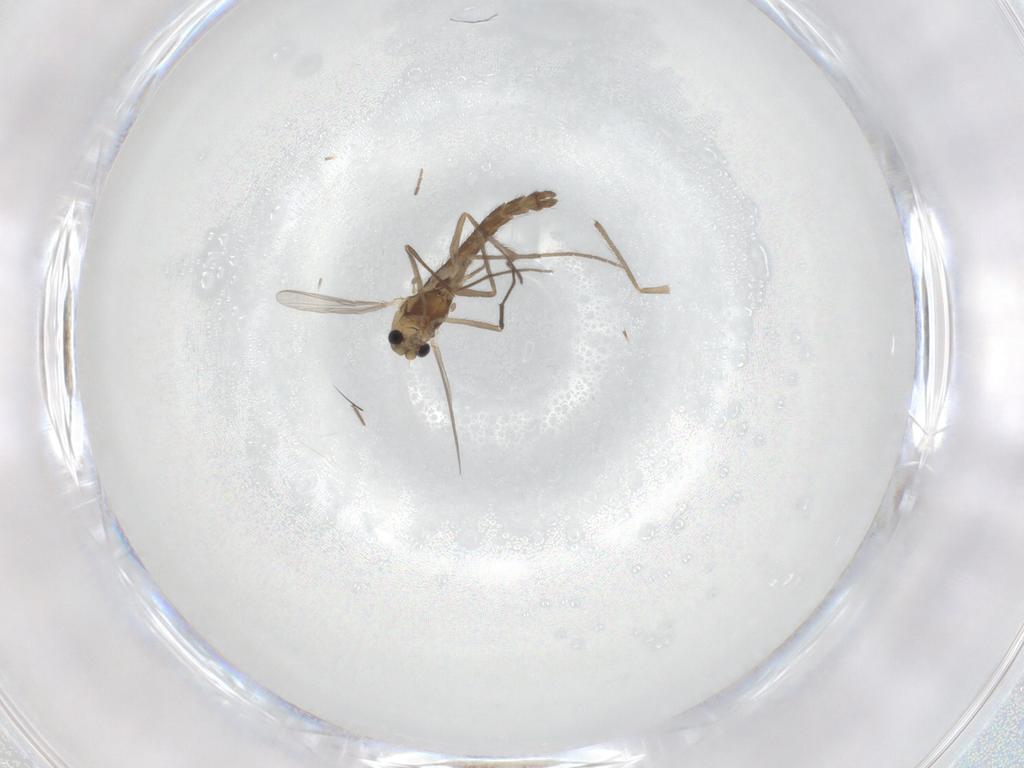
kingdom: Animalia
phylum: Arthropoda
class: Insecta
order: Diptera
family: Chironomidae
